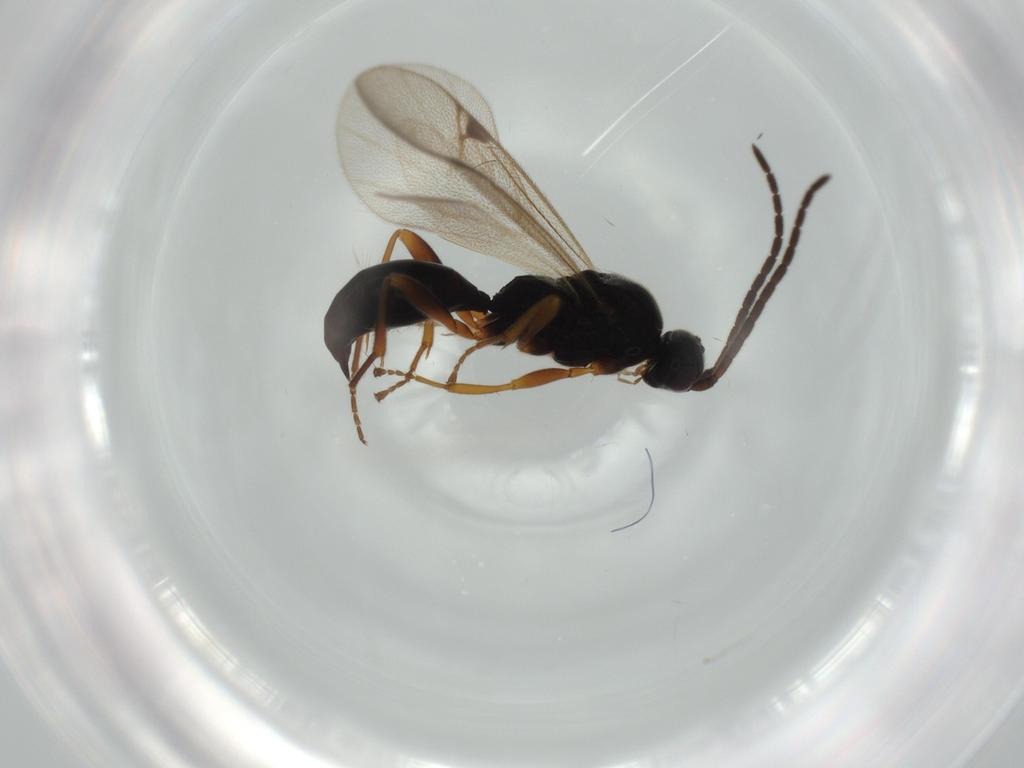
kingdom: Animalia
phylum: Arthropoda
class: Insecta
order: Hymenoptera
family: Proctotrupidae
